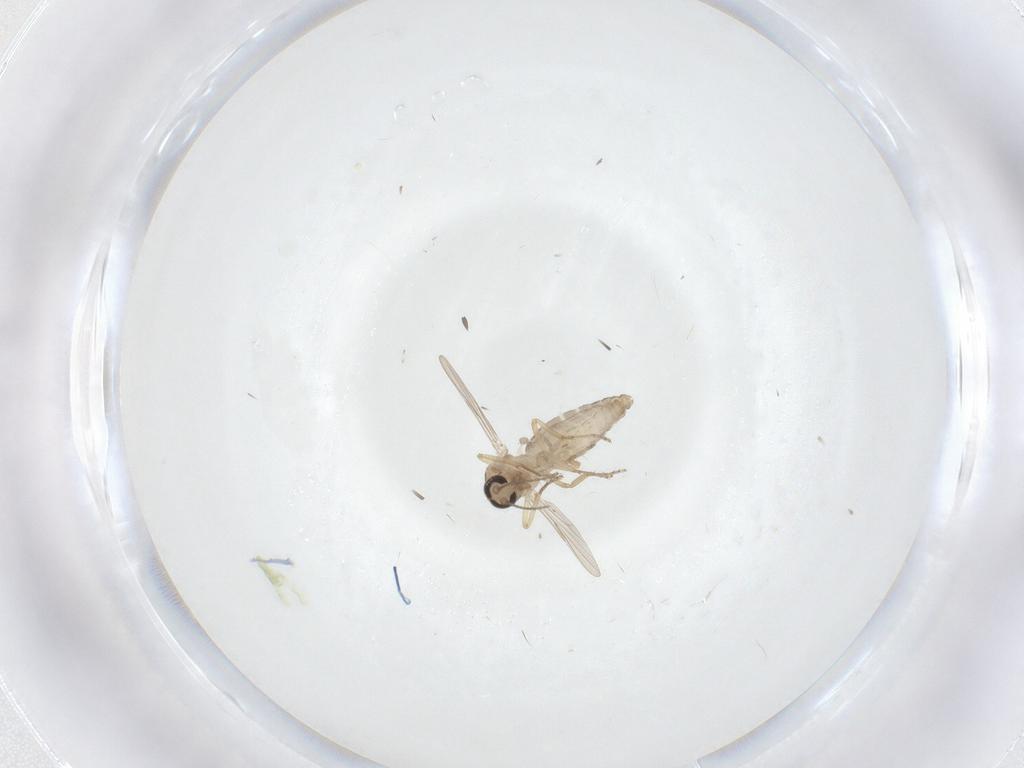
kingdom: Animalia
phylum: Arthropoda
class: Insecta
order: Diptera
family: Ceratopogonidae
